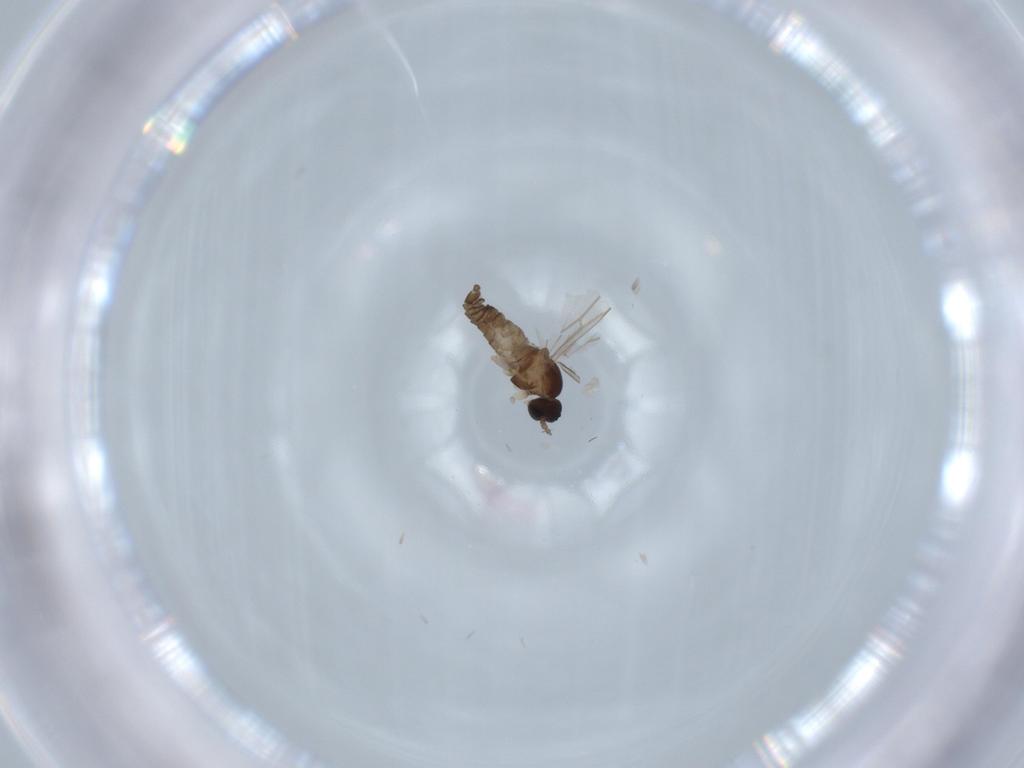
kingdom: Animalia
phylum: Arthropoda
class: Insecta
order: Diptera
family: Cecidomyiidae
